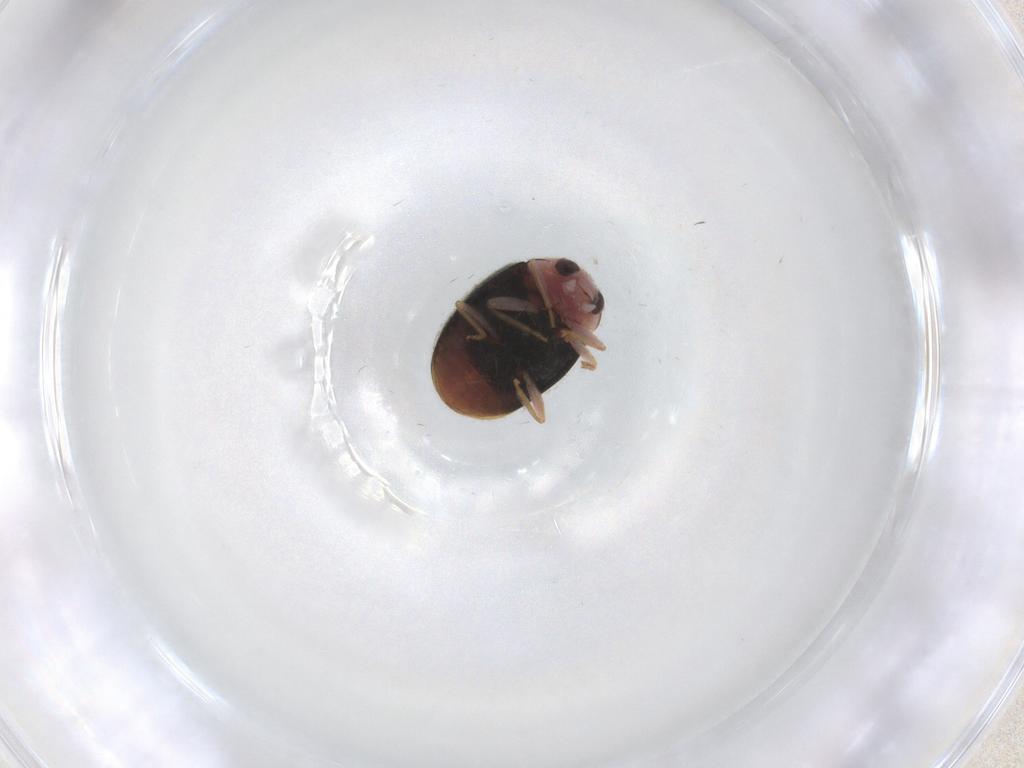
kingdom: Animalia
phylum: Arthropoda
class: Insecta
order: Coleoptera
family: Coccinellidae
